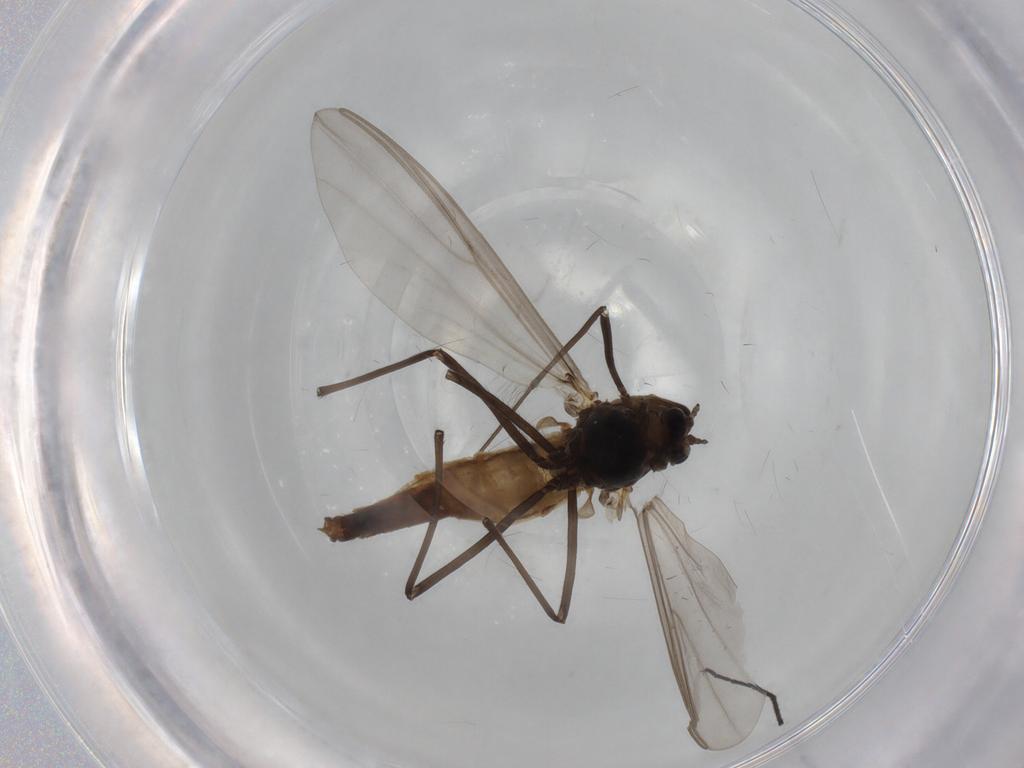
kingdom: Animalia
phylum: Arthropoda
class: Insecta
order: Diptera
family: Chironomidae
